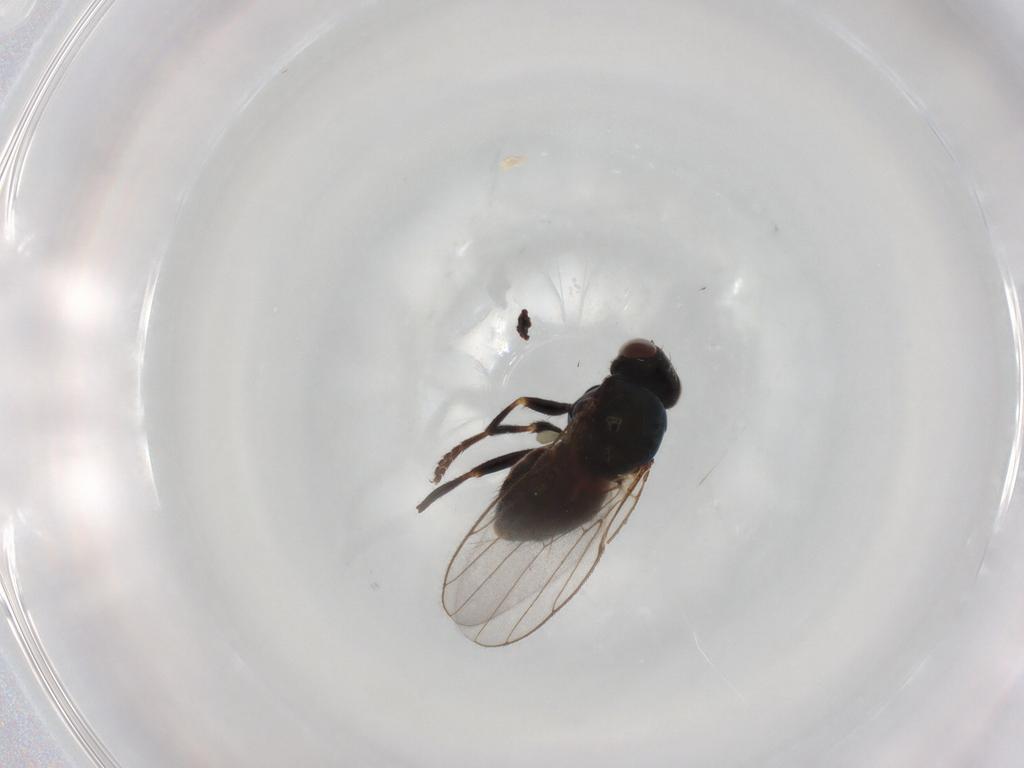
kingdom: Animalia
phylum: Arthropoda
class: Insecta
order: Diptera
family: Chloropidae
